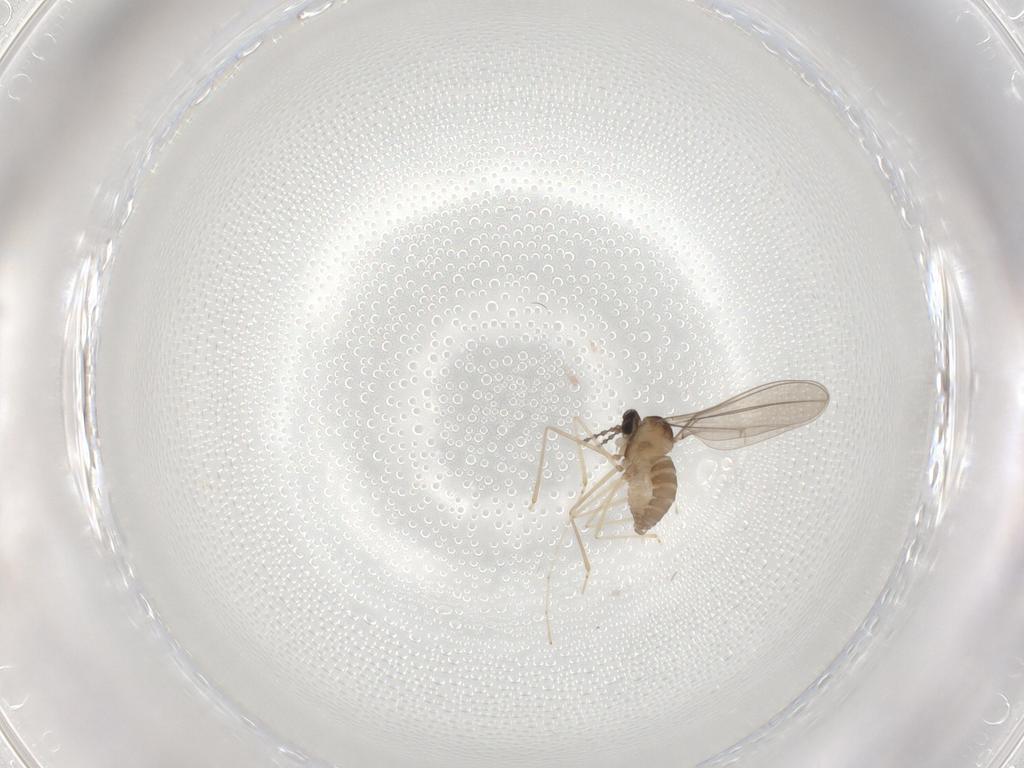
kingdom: Animalia
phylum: Arthropoda
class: Insecta
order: Diptera
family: Cecidomyiidae
